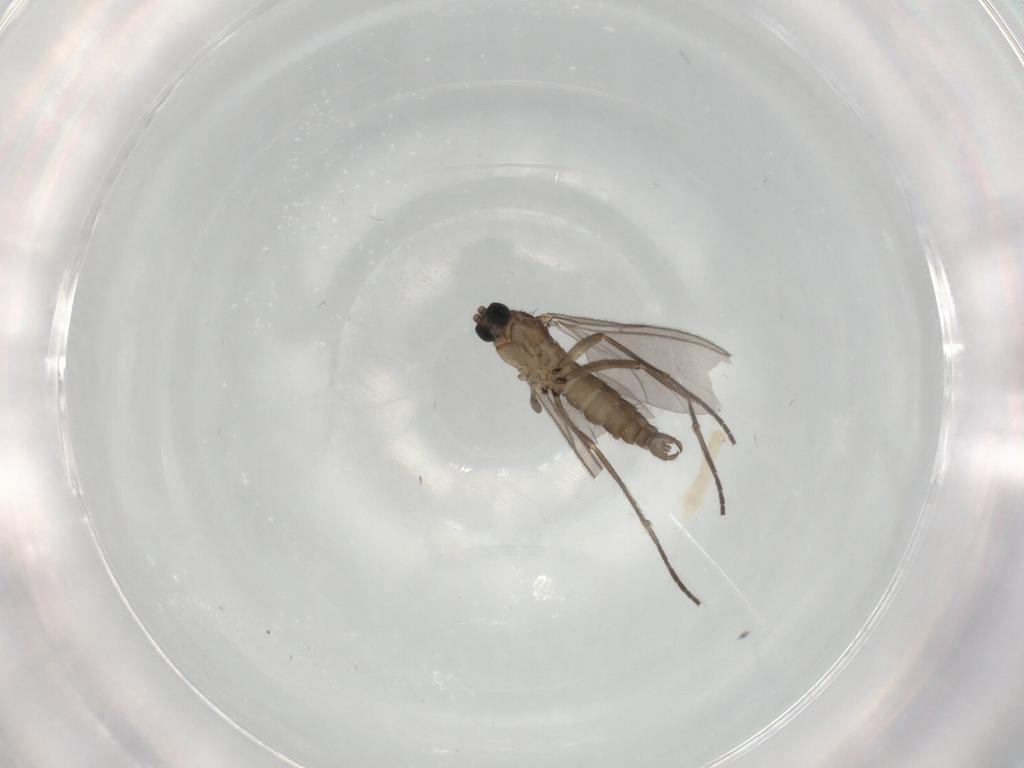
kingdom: Animalia
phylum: Arthropoda
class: Insecta
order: Diptera
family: Sciaridae
